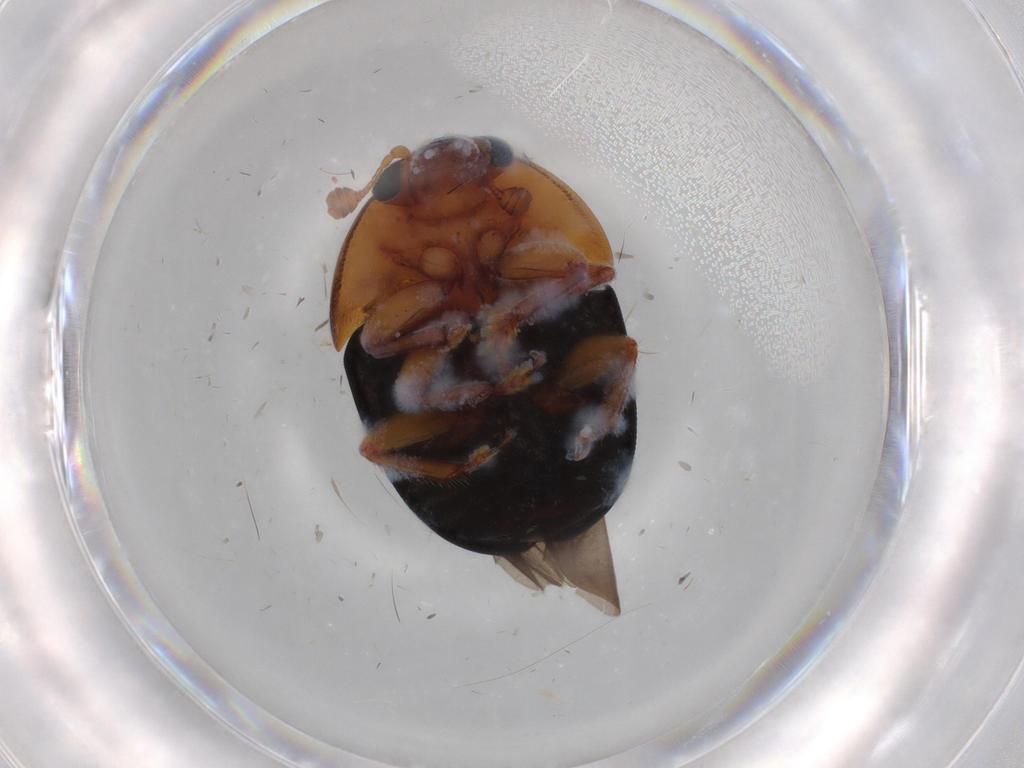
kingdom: Animalia
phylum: Arthropoda
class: Insecta
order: Coleoptera
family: Nitidulidae
